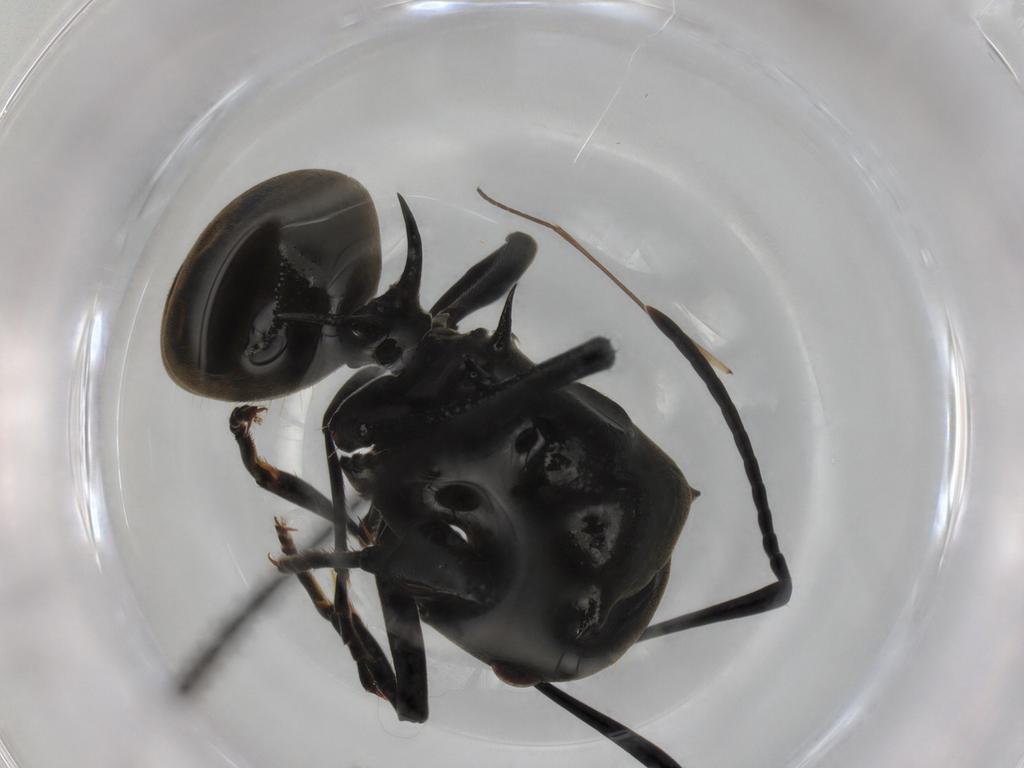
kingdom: Animalia
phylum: Arthropoda
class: Insecta
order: Hymenoptera
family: Formicidae
